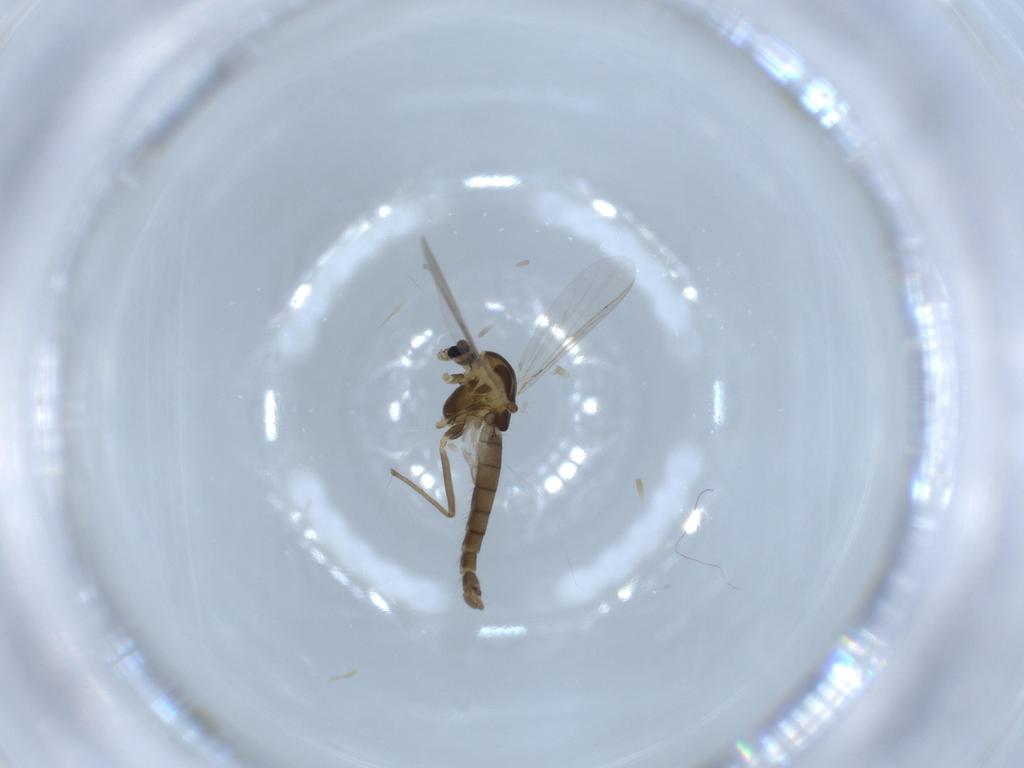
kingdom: Animalia
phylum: Arthropoda
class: Insecta
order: Diptera
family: Chironomidae
